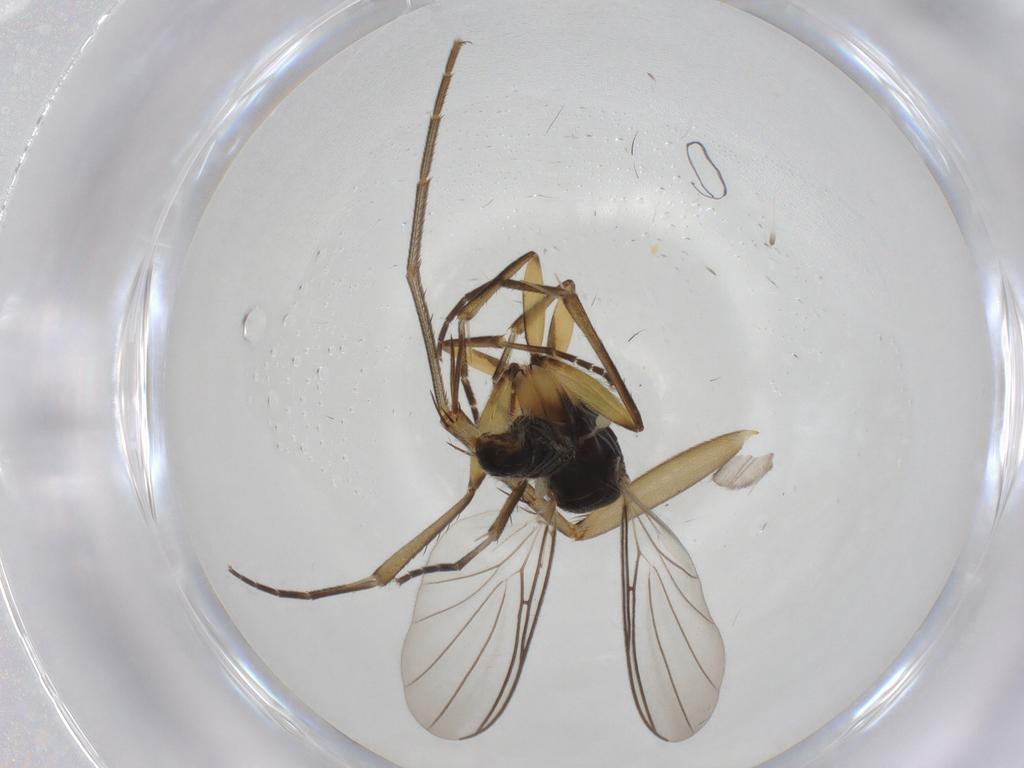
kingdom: Animalia
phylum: Arthropoda
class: Insecta
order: Diptera
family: Mycetophilidae
